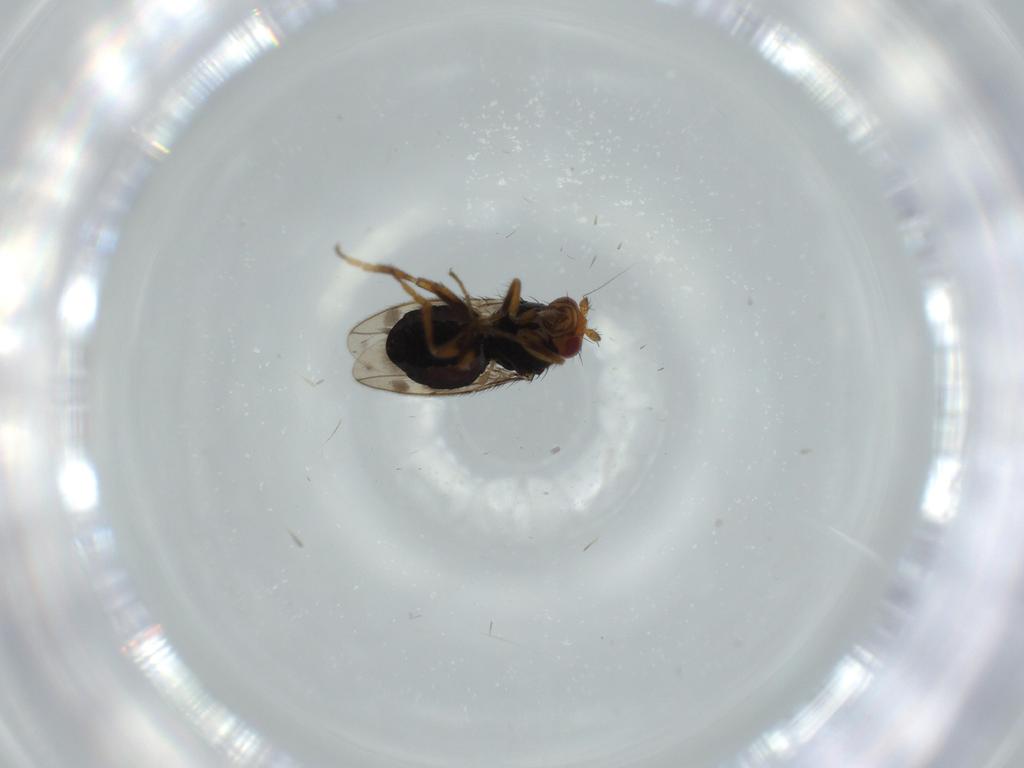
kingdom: Animalia
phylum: Arthropoda
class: Insecta
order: Diptera
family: Sphaeroceridae
